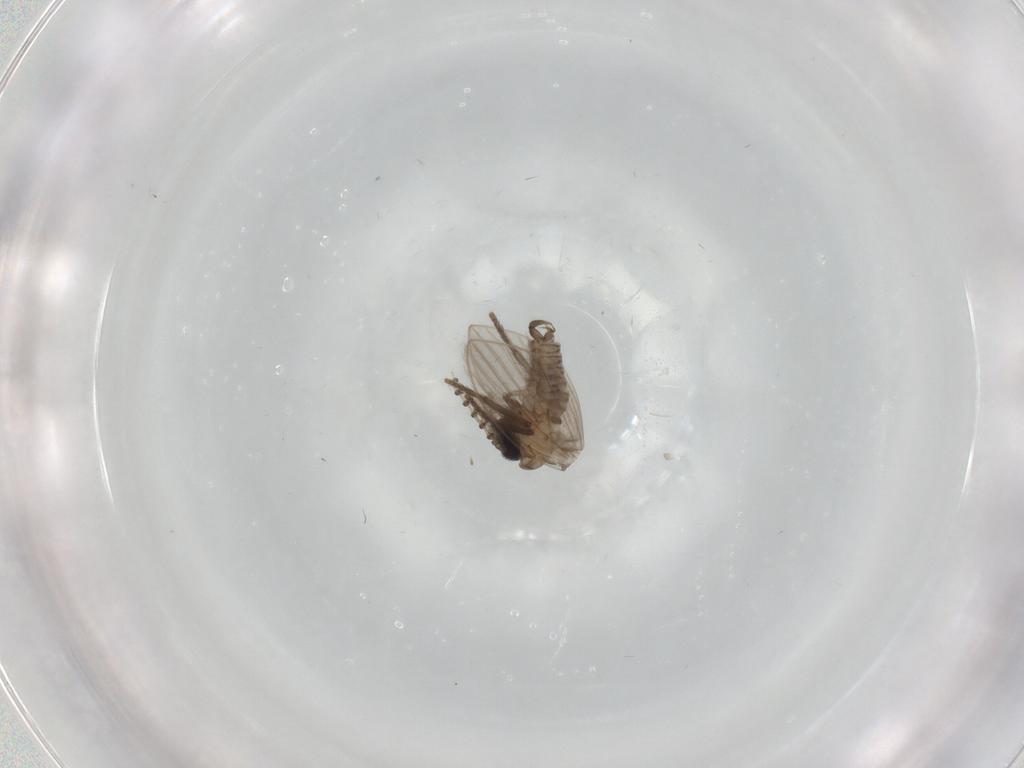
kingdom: Animalia
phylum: Arthropoda
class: Insecta
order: Diptera
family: Psychodidae
